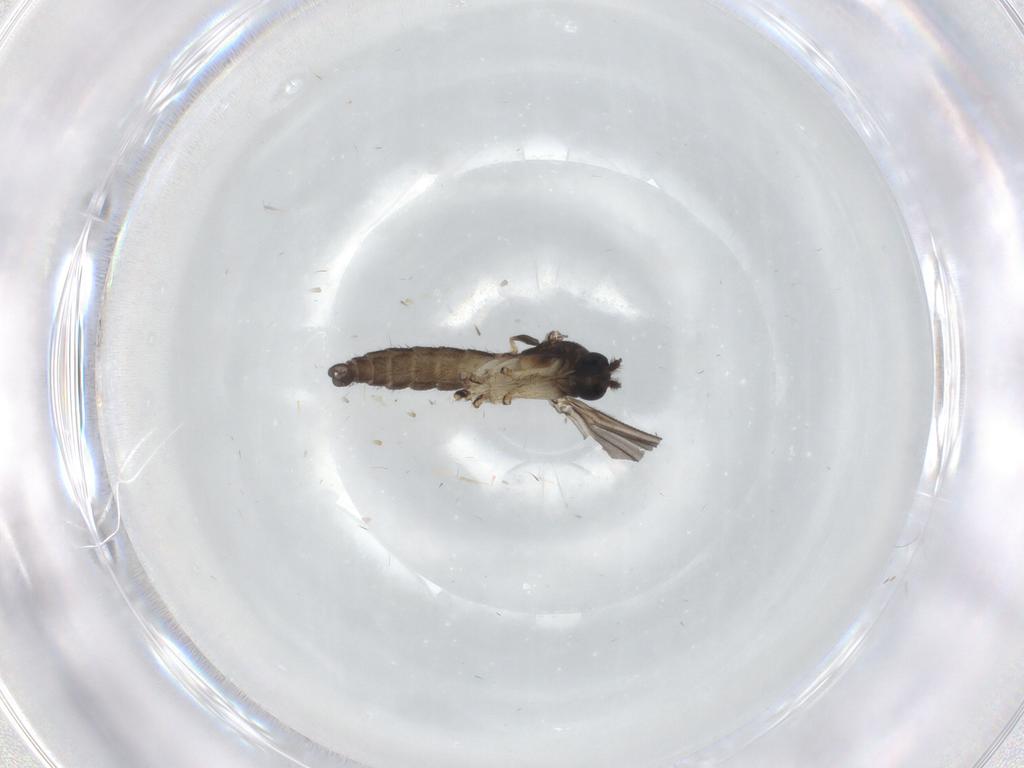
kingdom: Animalia
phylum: Arthropoda
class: Insecta
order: Diptera
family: Sciaridae
